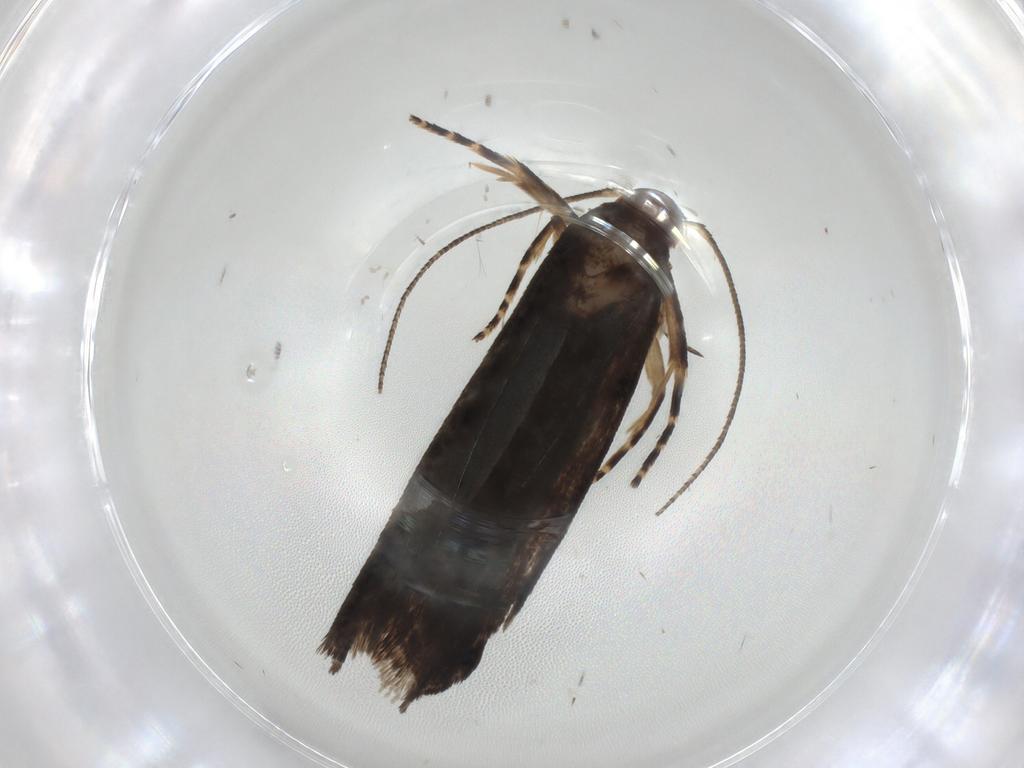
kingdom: Animalia
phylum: Arthropoda
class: Insecta
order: Lepidoptera
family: Gelechiidae
